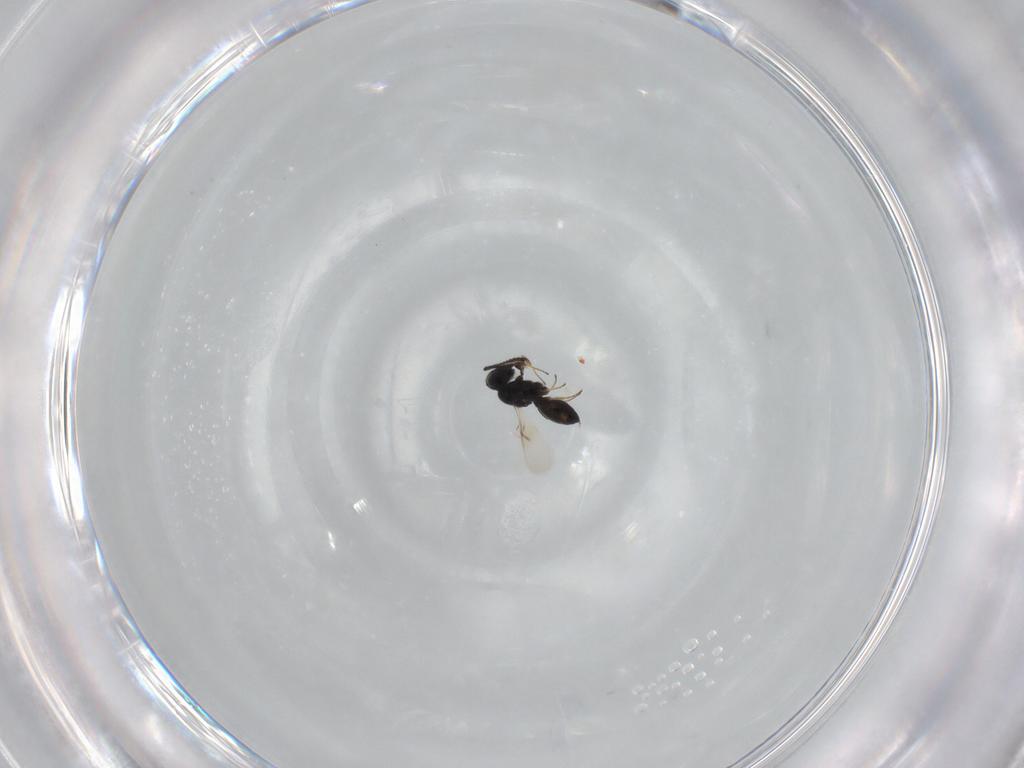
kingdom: Animalia
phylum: Arthropoda
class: Insecta
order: Hymenoptera
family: Scelionidae
